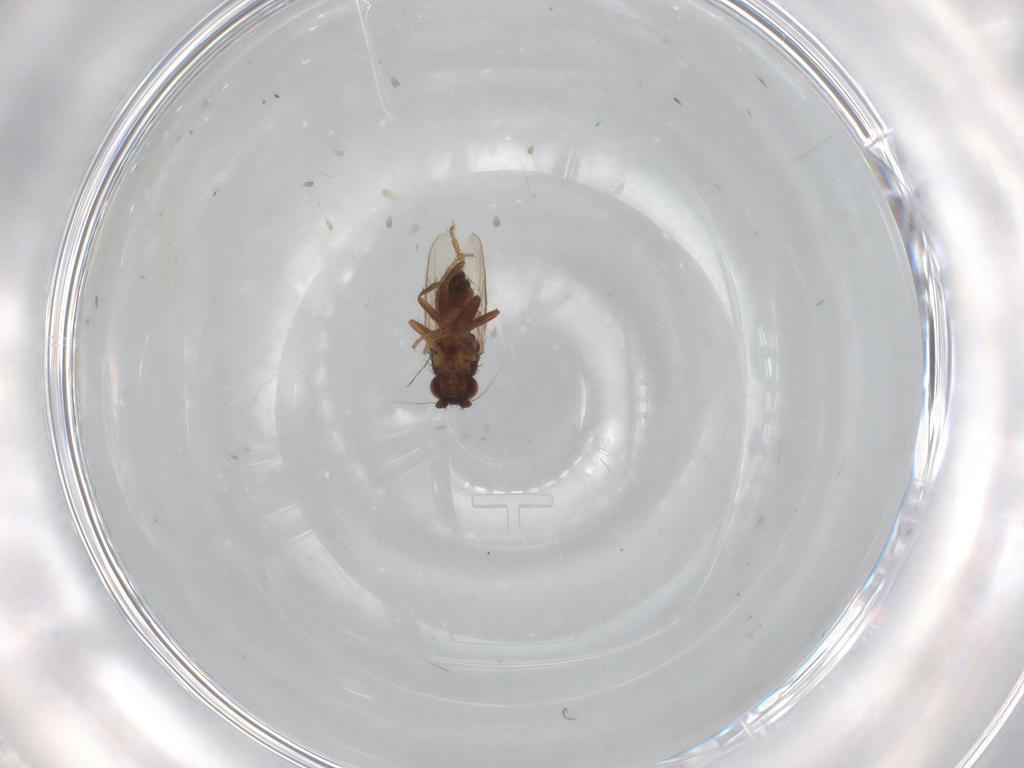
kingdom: Animalia
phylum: Arthropoda
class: Insecta
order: Diptera
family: Sphaeroceridae
